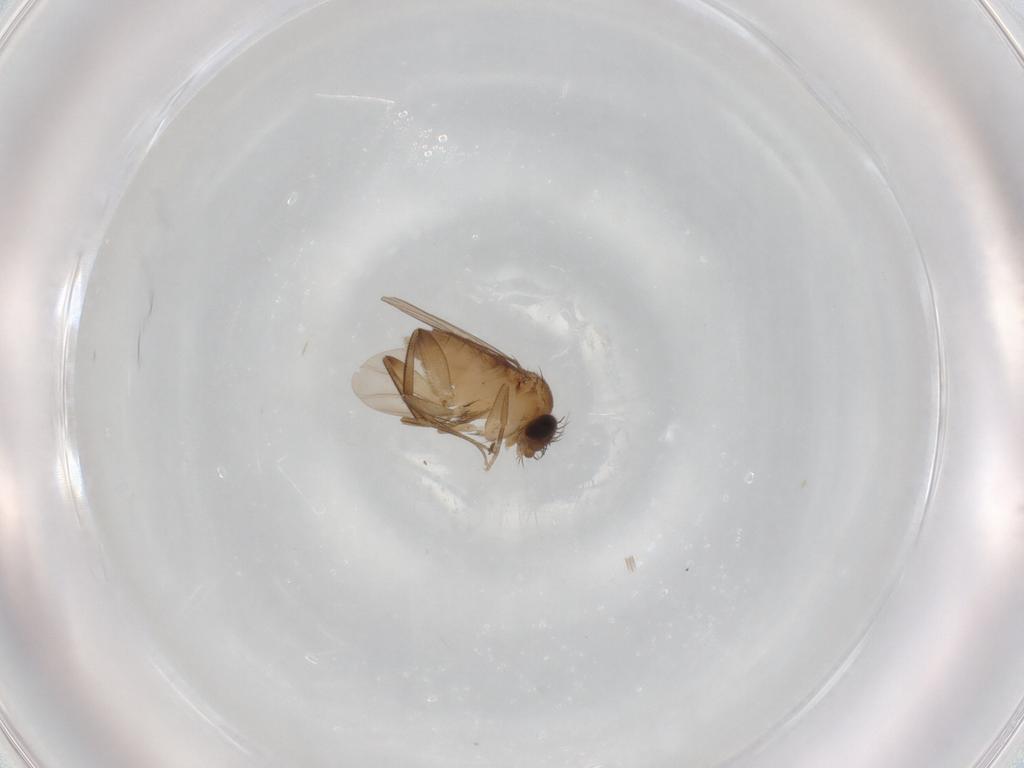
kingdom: Animalia
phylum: Arthropoda
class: Insecta
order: Diptera
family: Phoridae
